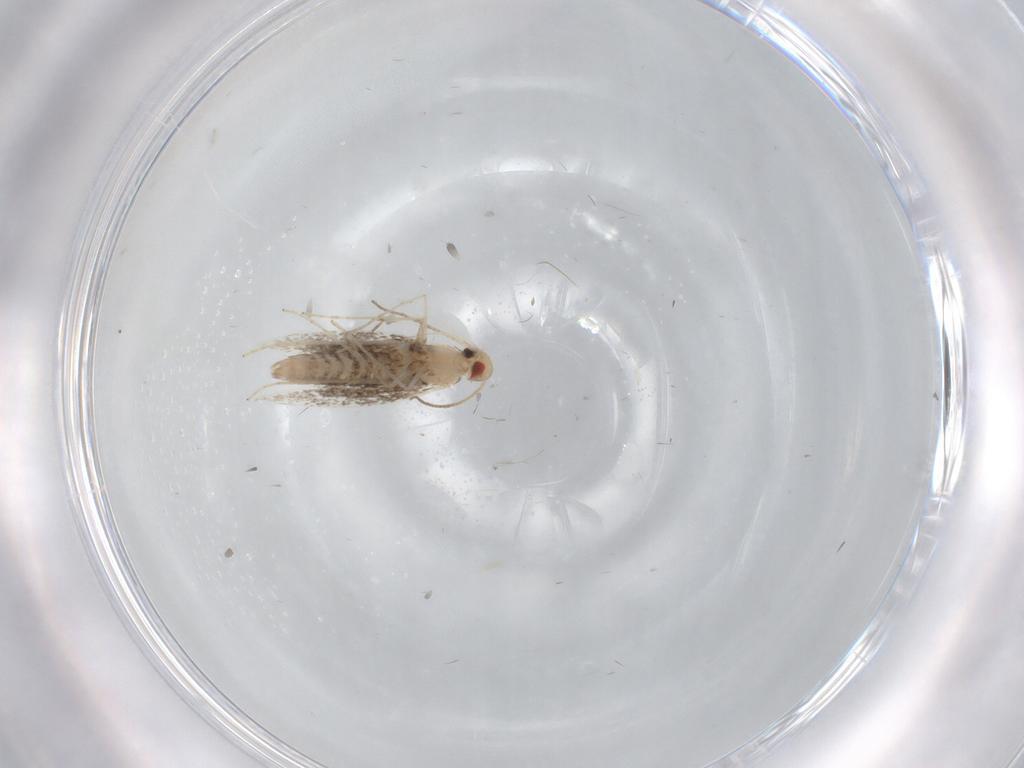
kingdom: Animalia
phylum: Arthropoda
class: Insecta
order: Lepidoptera
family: Gracillariidae
